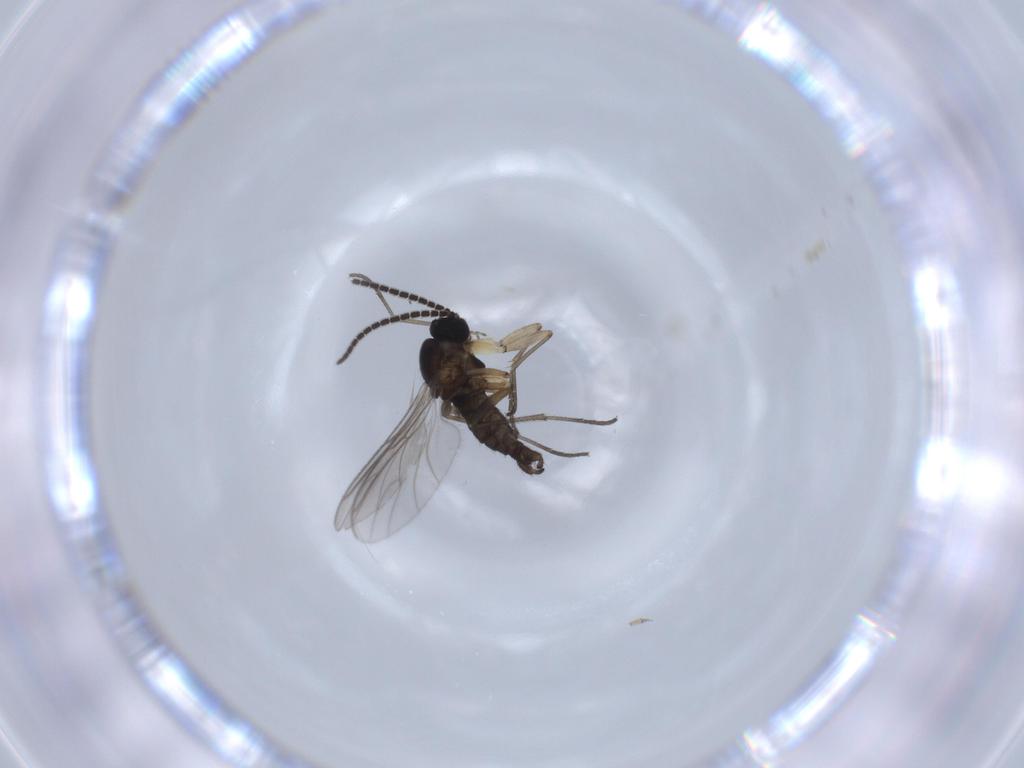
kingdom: Animalia
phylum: Arthropoda
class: Insecta
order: Diptera
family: Sciaridae
